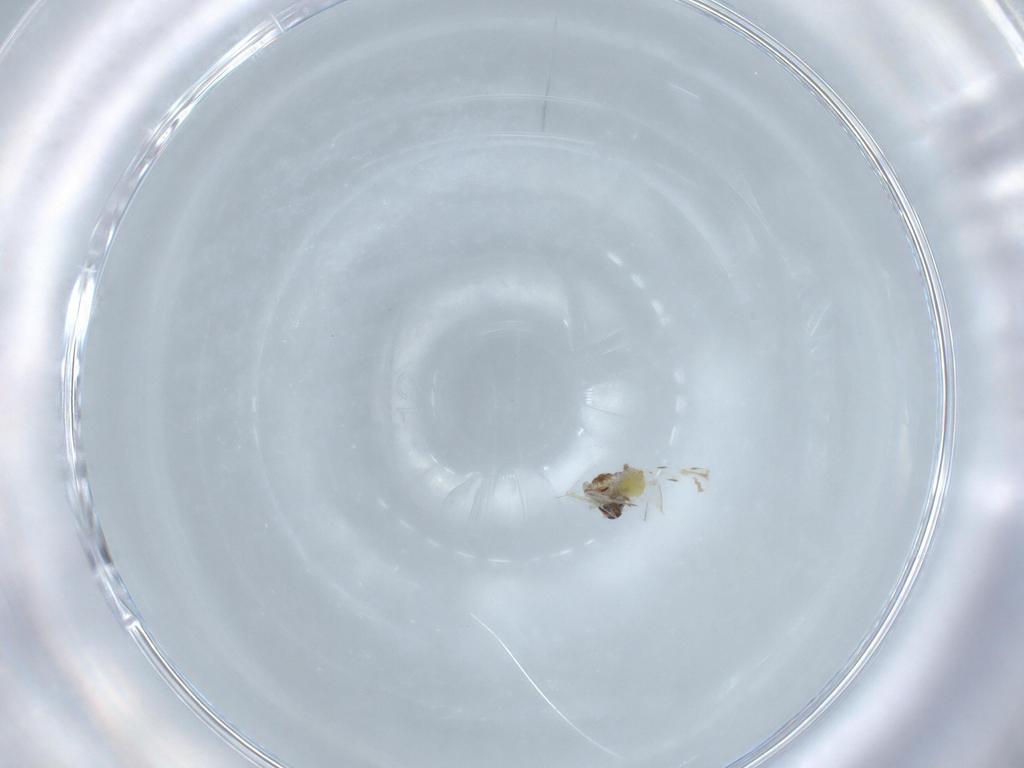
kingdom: Animalia
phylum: Arthropoda
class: Insecta
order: Hemiptera
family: Aleyrodidae
